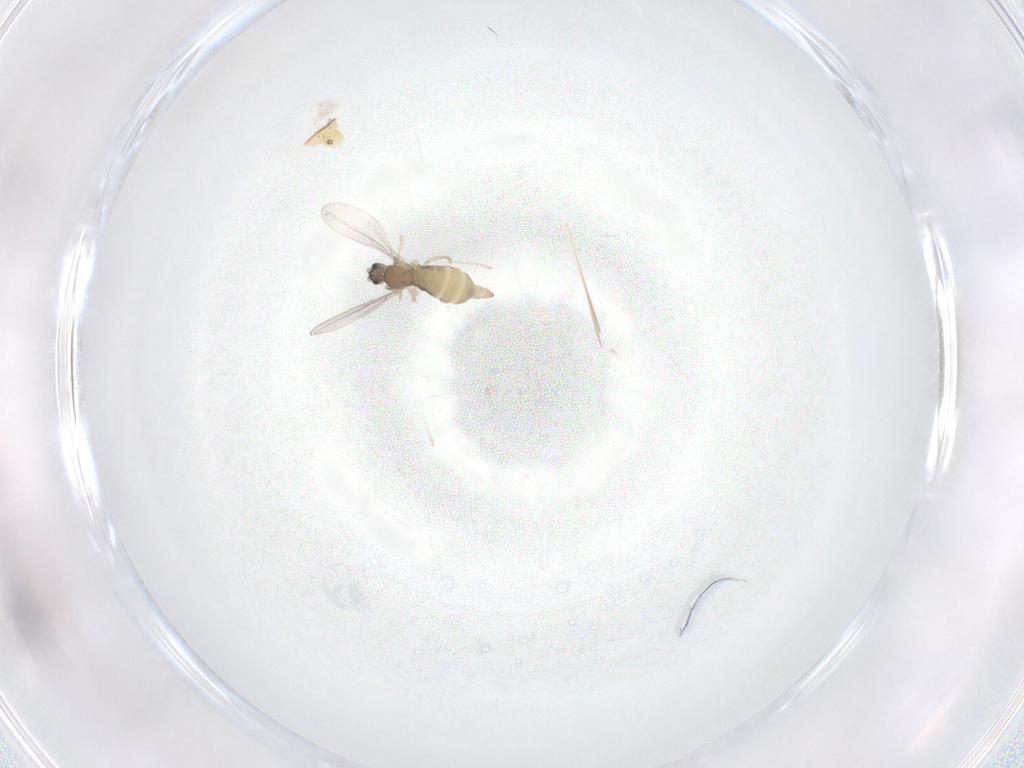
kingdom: Animalia
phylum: Arthropoda
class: Insecta
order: Diptera
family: Cecidomyiidae
